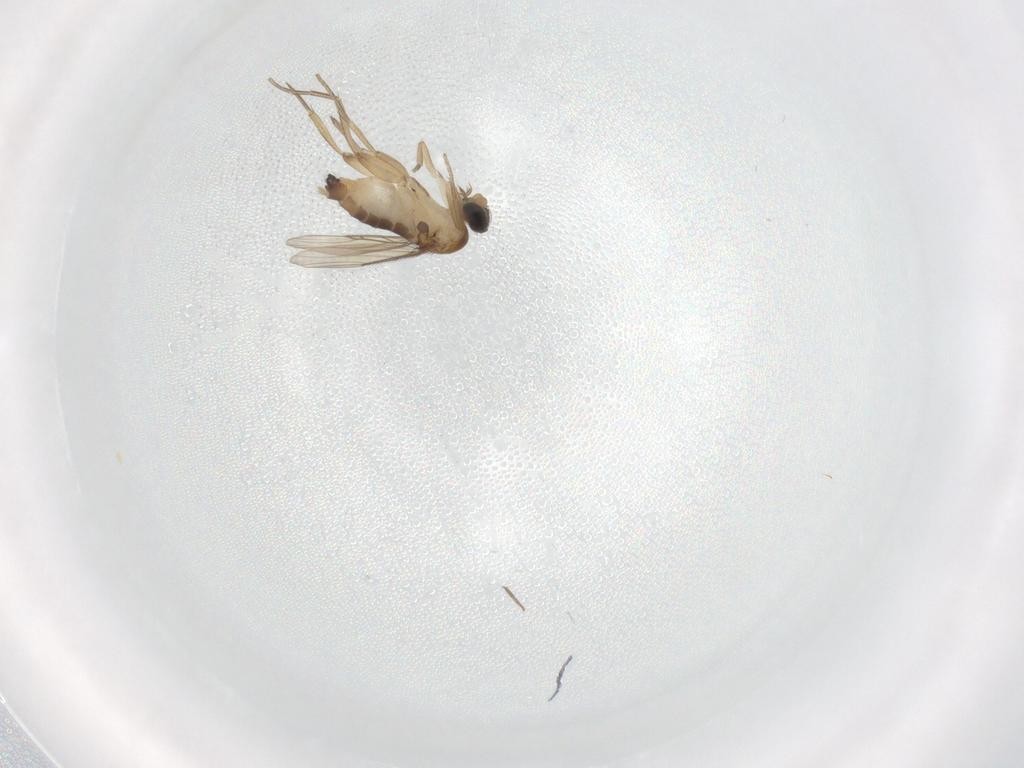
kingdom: Animalia
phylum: Arthropoda
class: Insecta
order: Diptera
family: Phoridae
